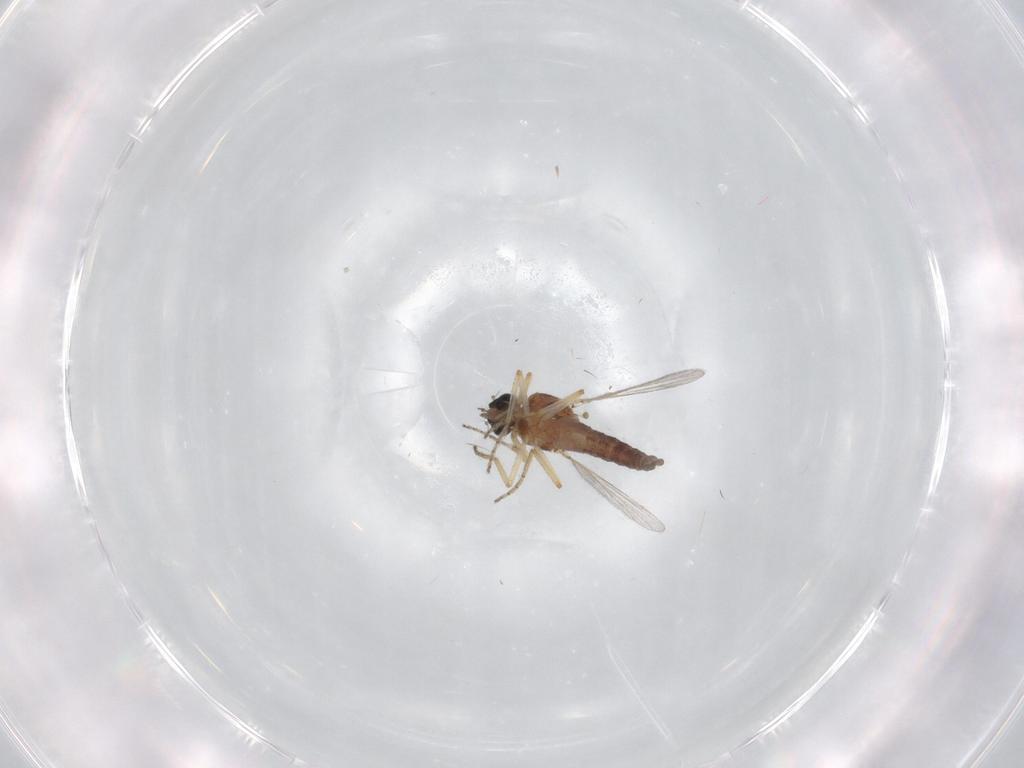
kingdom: Animalia
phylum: Arthropoda
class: Insecta
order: Diptera
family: Ceratopogonidae
